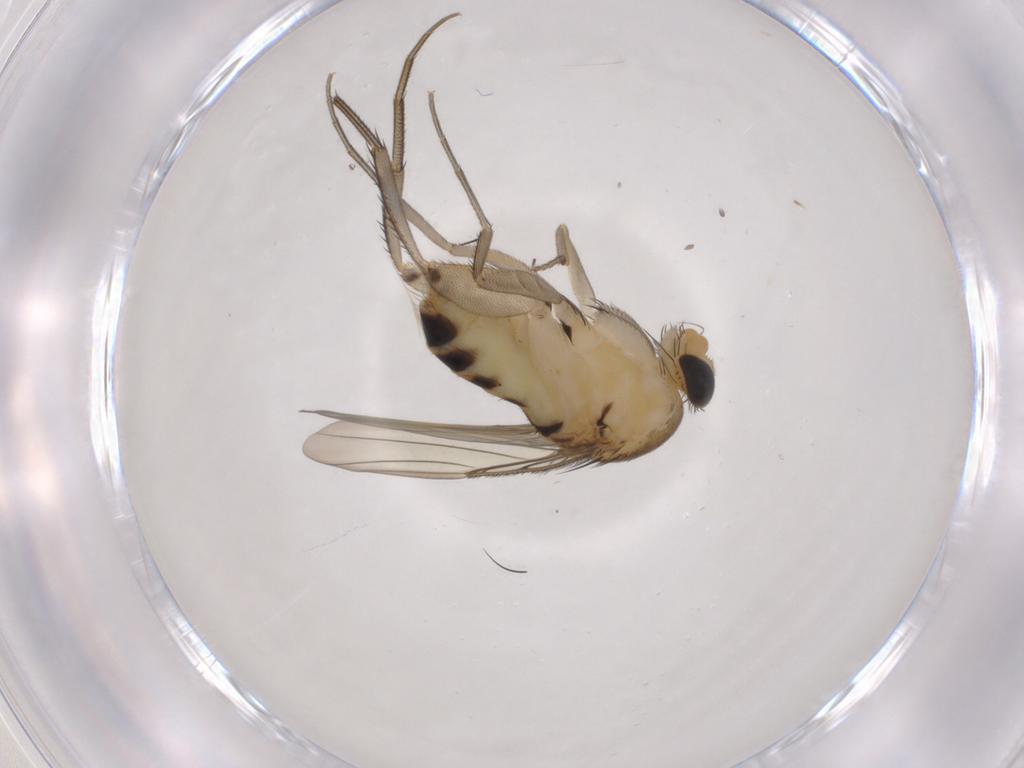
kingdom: Animalia
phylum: Arthropoda
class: Insecta
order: Diptera
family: Phoridae
